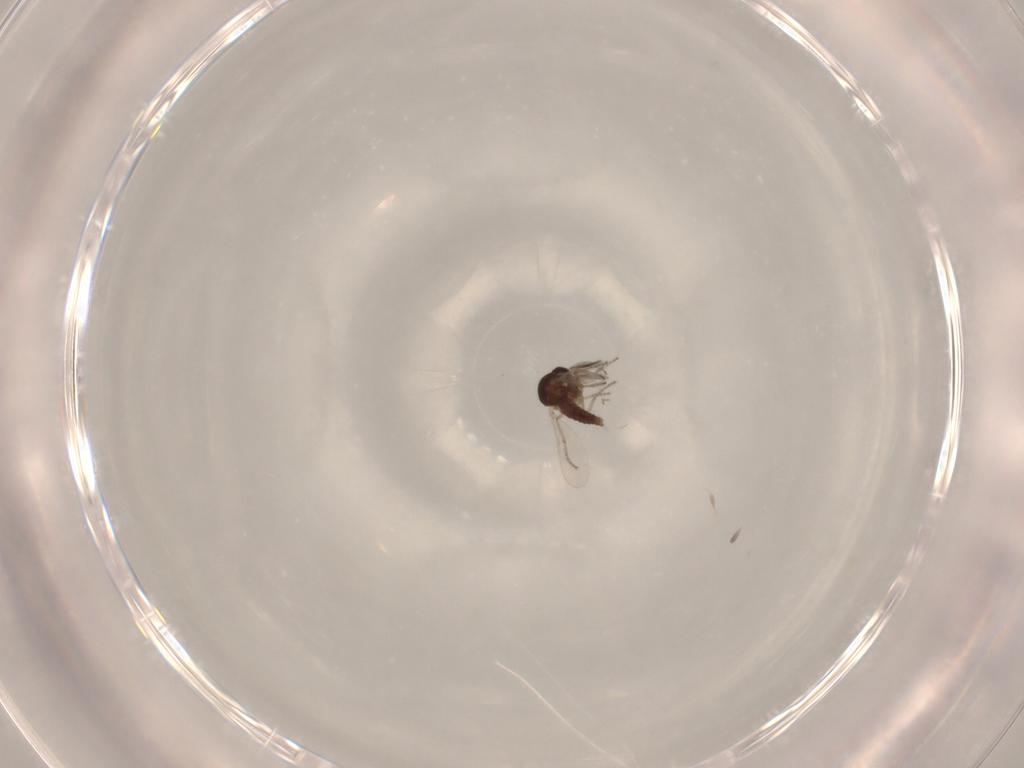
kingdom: Animalia
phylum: Arthropoda
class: Insecta
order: Diptera
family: Ceratopogonidae
